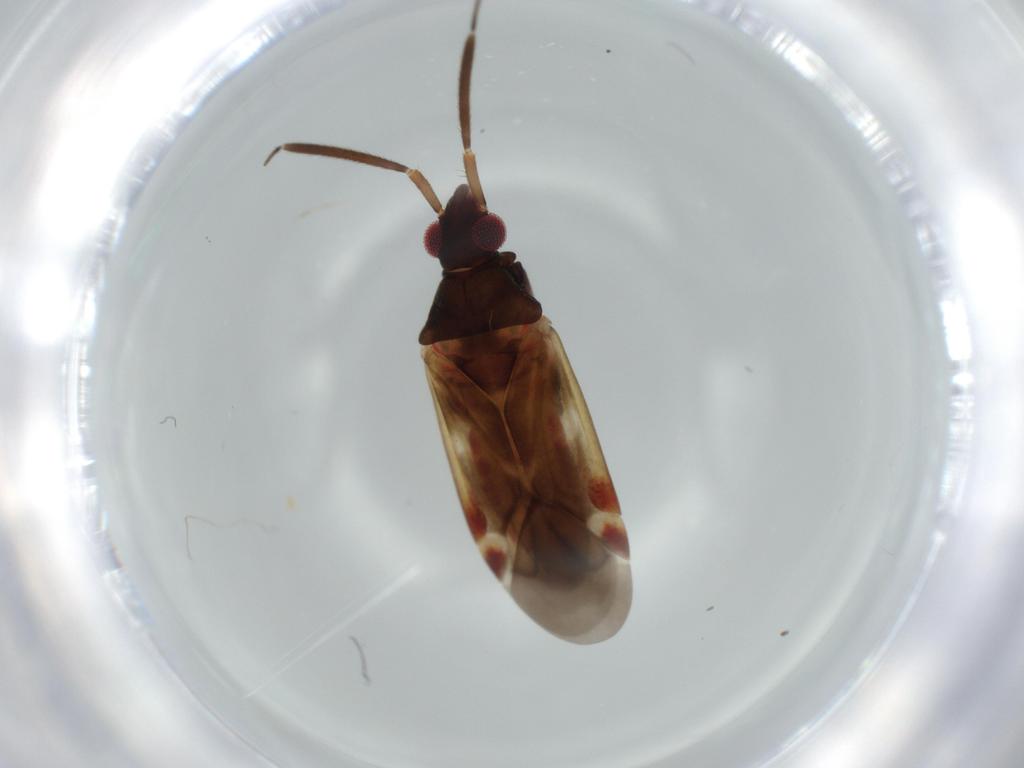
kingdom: Animalia
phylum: Arthropoda
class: Insecta
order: Hemiptera
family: Miridae
